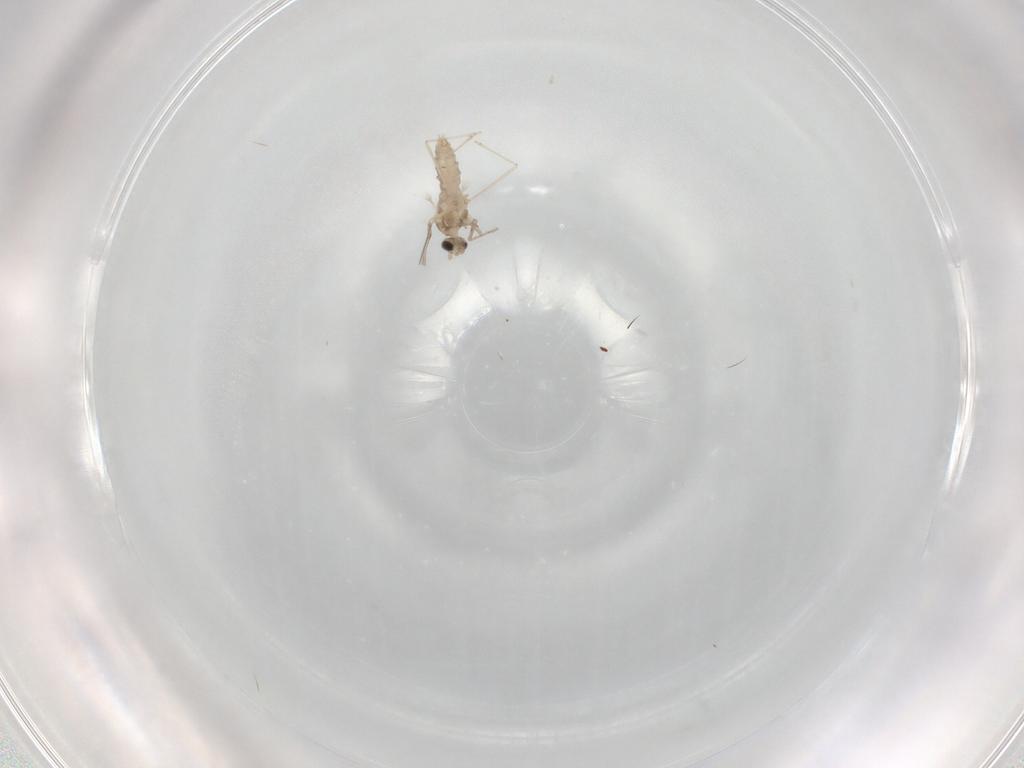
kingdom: Animalia
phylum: Arthropoda
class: Insecta
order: Diptera
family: Cecidomyiidae
